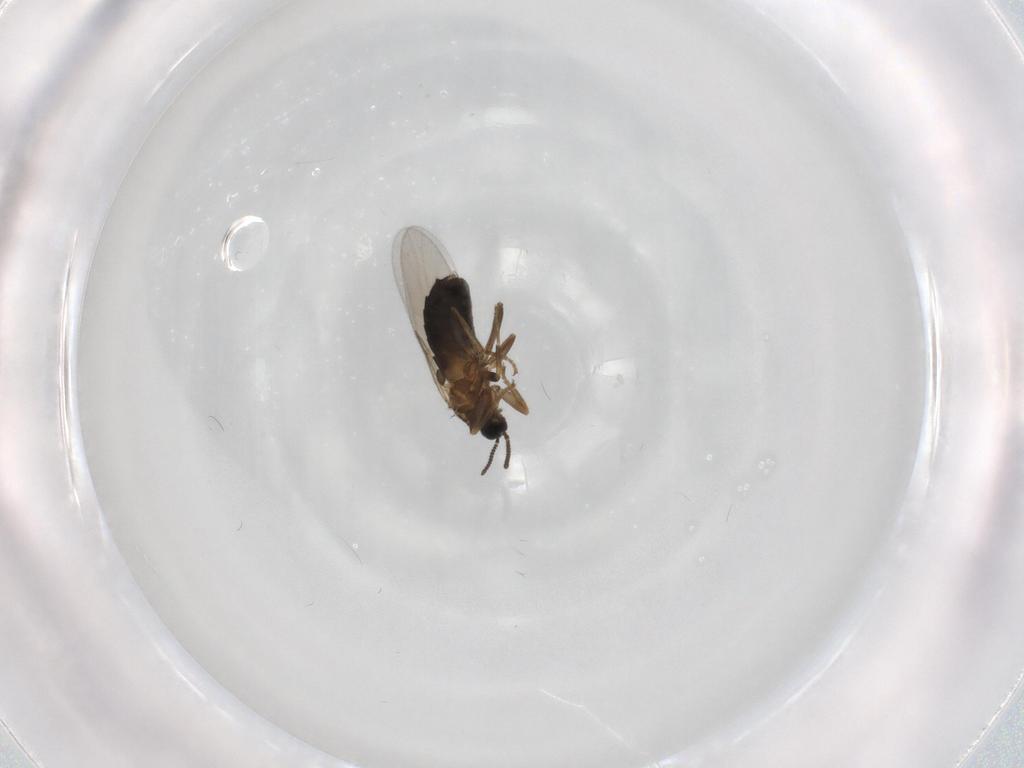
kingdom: Animalia
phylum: Arthropoda
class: Insecta
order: Diptera
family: Scatopsidae
